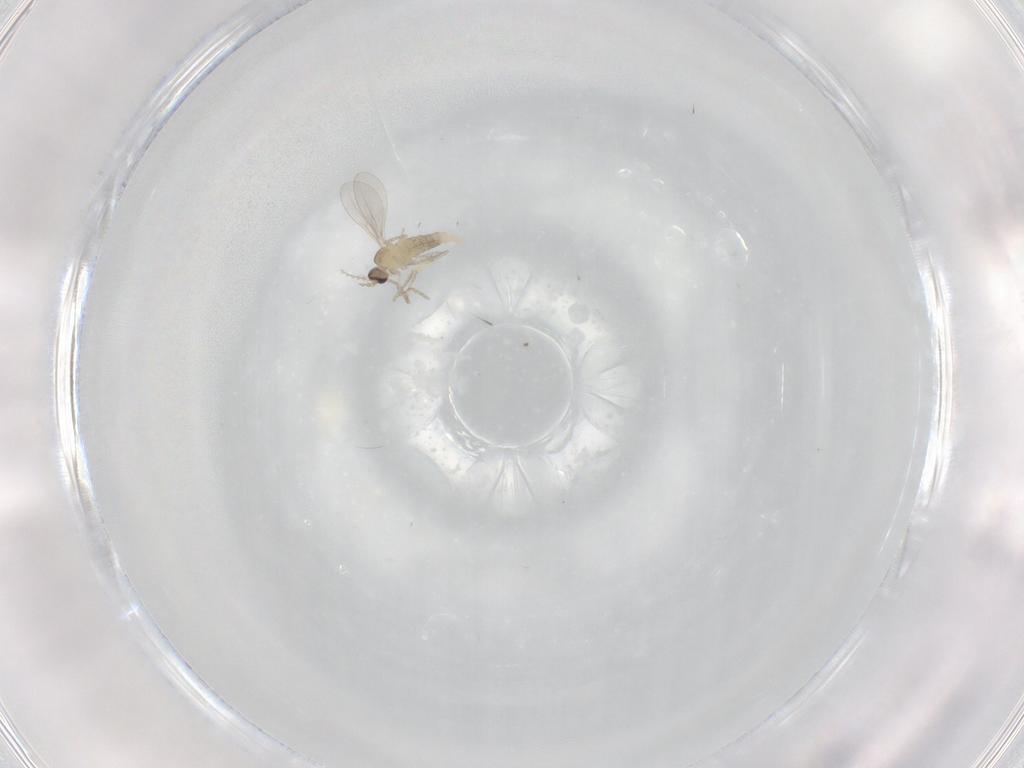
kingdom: Animalia
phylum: Arthropoda
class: Insecta
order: Diptera
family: Cecidomyiidae
